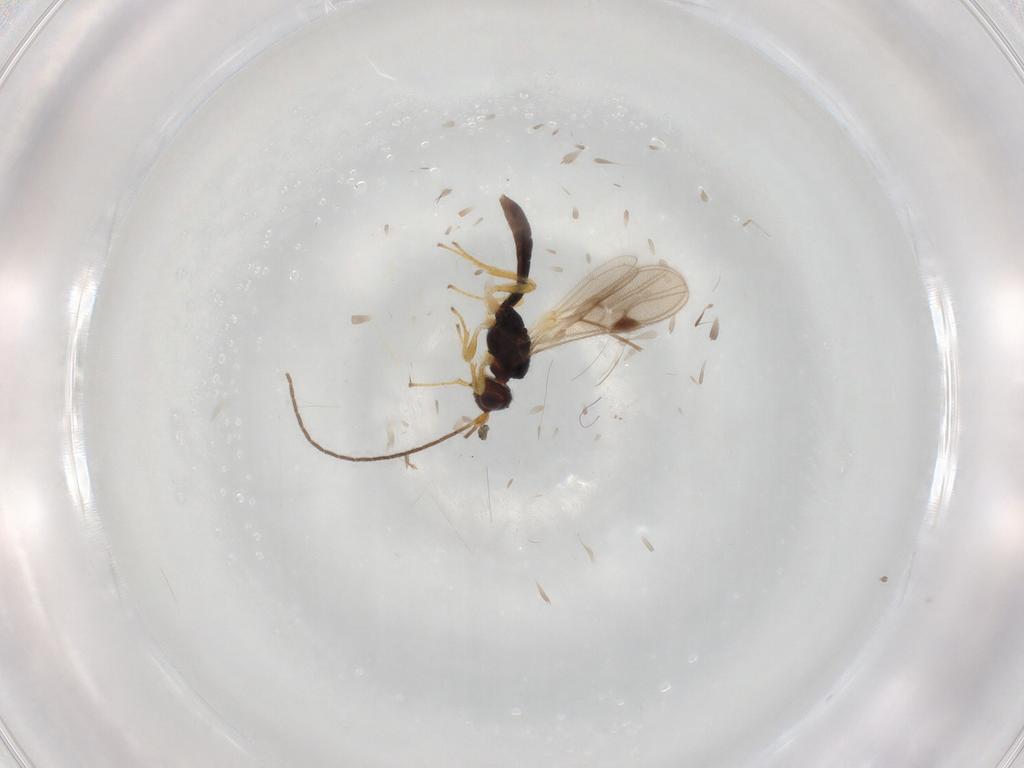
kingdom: Animalia
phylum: Arthropoda
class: Insecta
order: Hymenoptera
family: Braconidae
